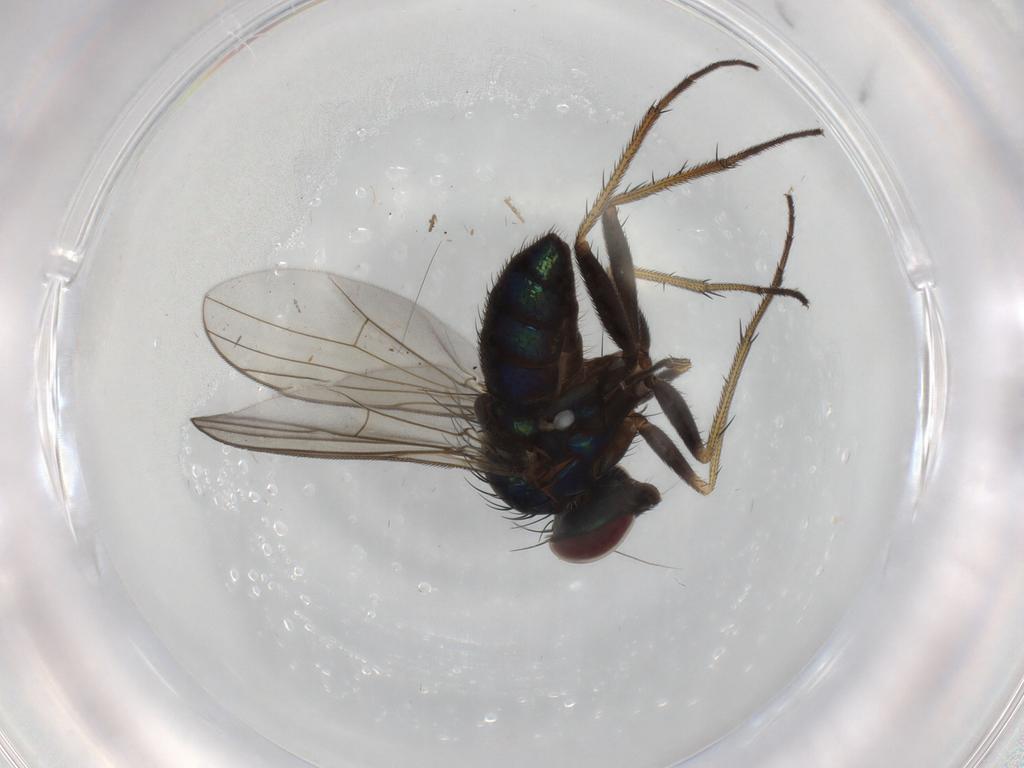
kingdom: Animalia
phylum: Arthropoda
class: Insecta
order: Diptera
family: Dolichopodidae
